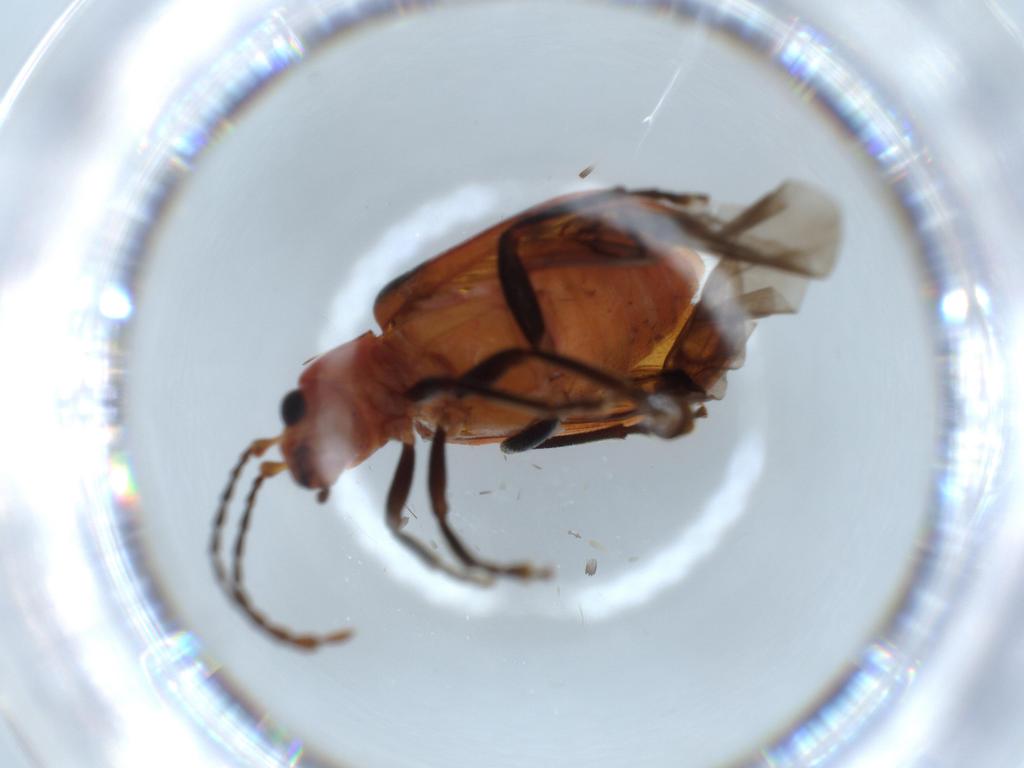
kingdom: Animalia
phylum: Arthropoda
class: Insecta
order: Coleoptera
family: Chrysomelidae
